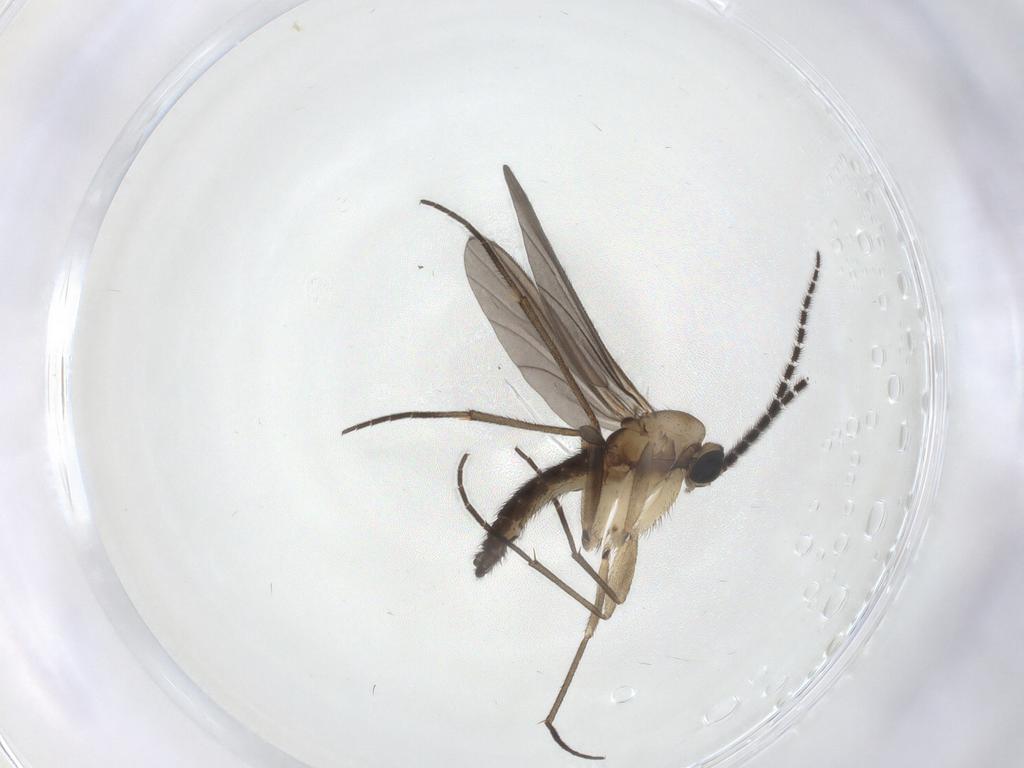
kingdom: Animalia
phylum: Arthropoda
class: Insecta
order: Diptera
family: Sciaridae
